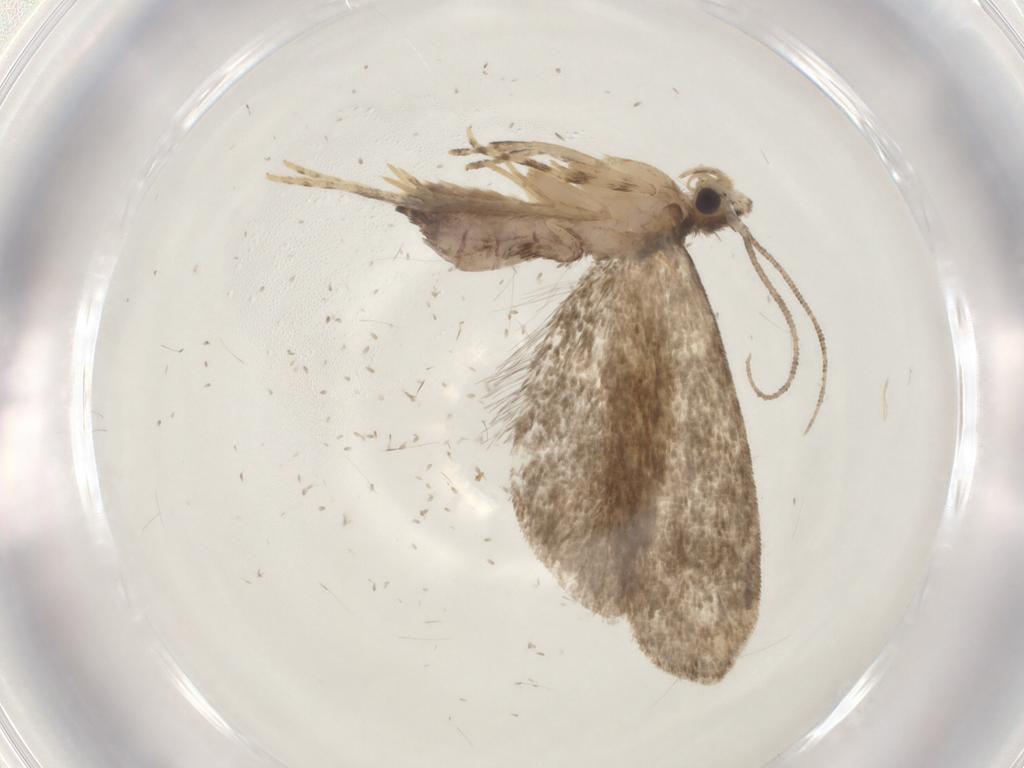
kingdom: Animalia
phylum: Arthropoda
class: Insecta
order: Lepidoptera
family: Tineidae
